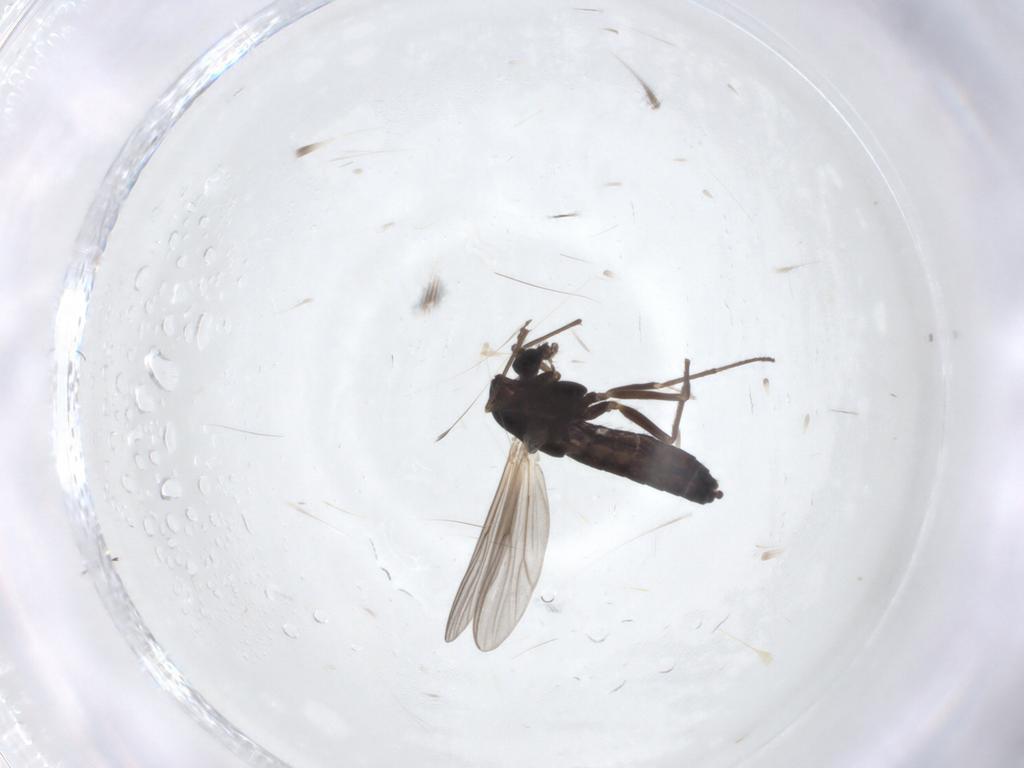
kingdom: Animalia
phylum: Arthropoda
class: Insecta
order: Diptera
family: Chironomidae
